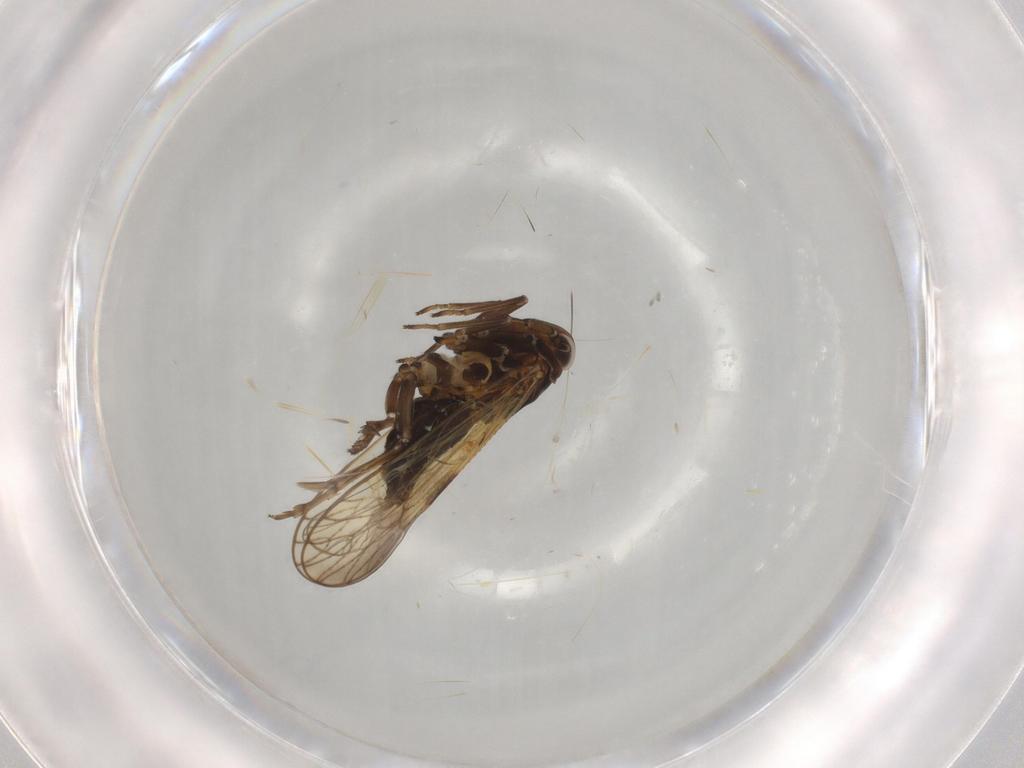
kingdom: Animalia
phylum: Arthropoda
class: Insecta
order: Hemiptera
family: Delphacidae
